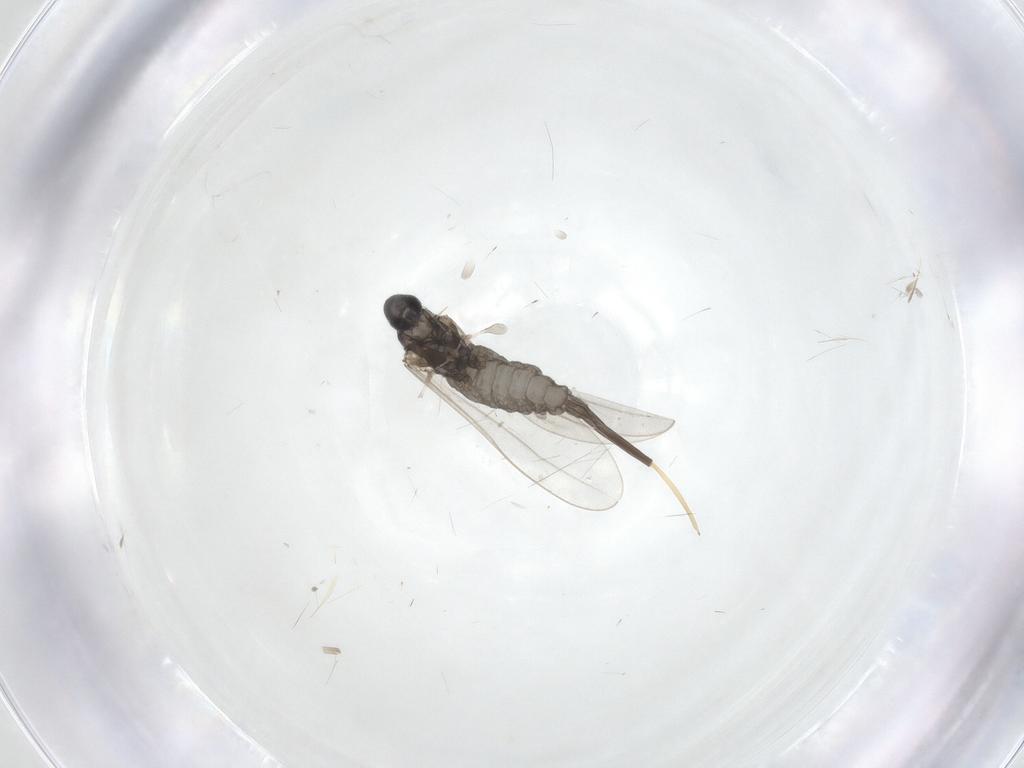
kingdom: Animalia
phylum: Arthropoda
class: Insecta
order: Diptera
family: Cecidomyiidae
